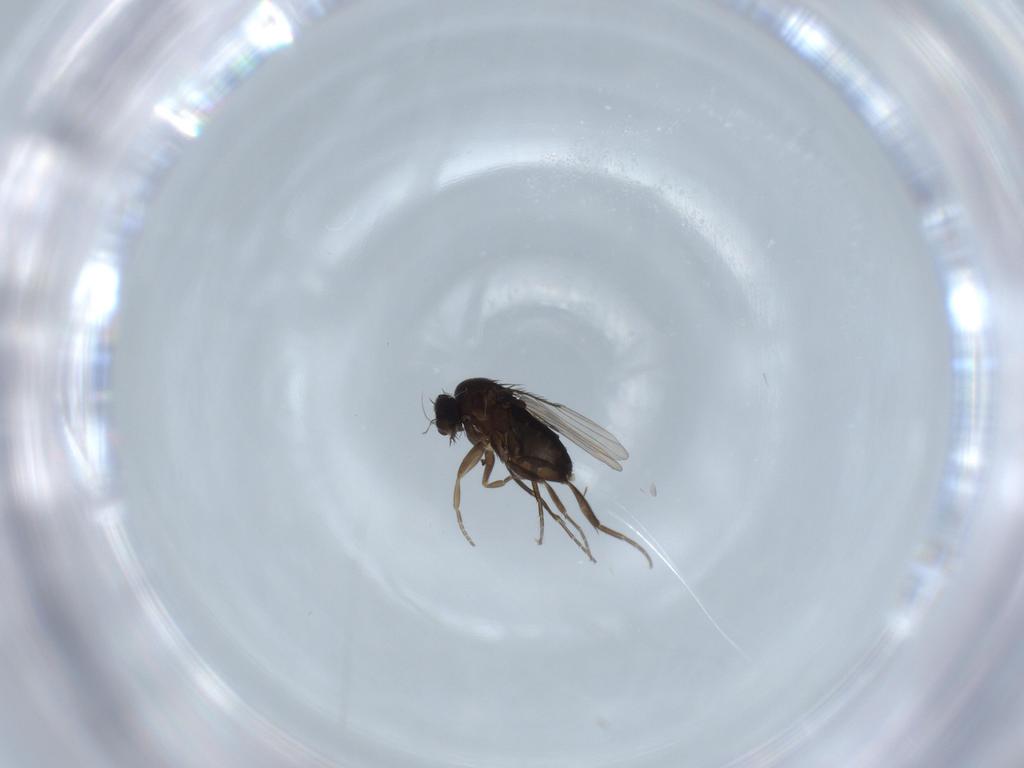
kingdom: Animalia
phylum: Arthropoda
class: Insecta
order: Diptera
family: Phoridae
